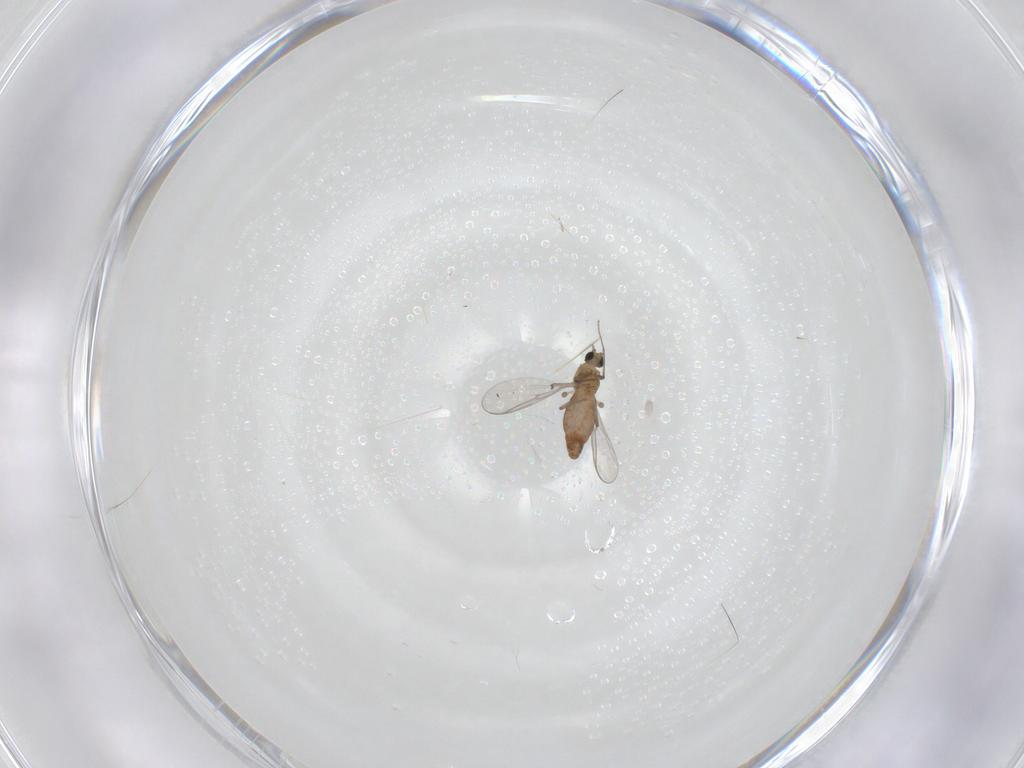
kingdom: Animalia
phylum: Arthropoda
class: Insecta
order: Diptera
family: Chironomidae
